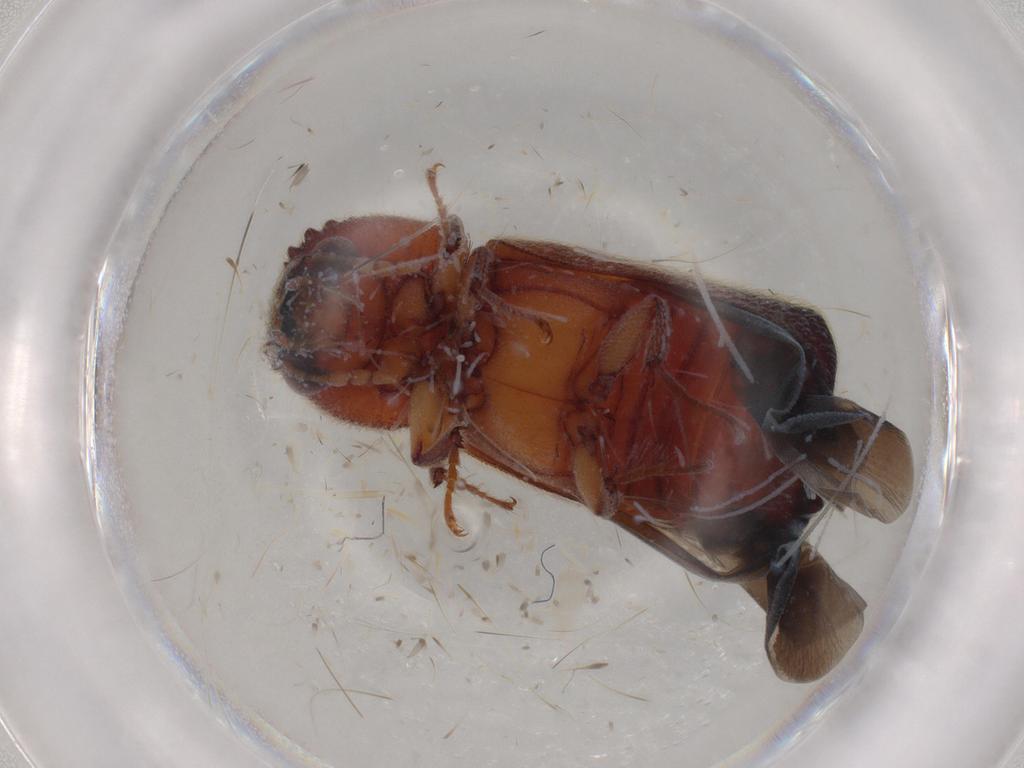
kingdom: Animalia
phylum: Arthropoda
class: Insecta
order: Coleoptera
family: Bostrichidae
